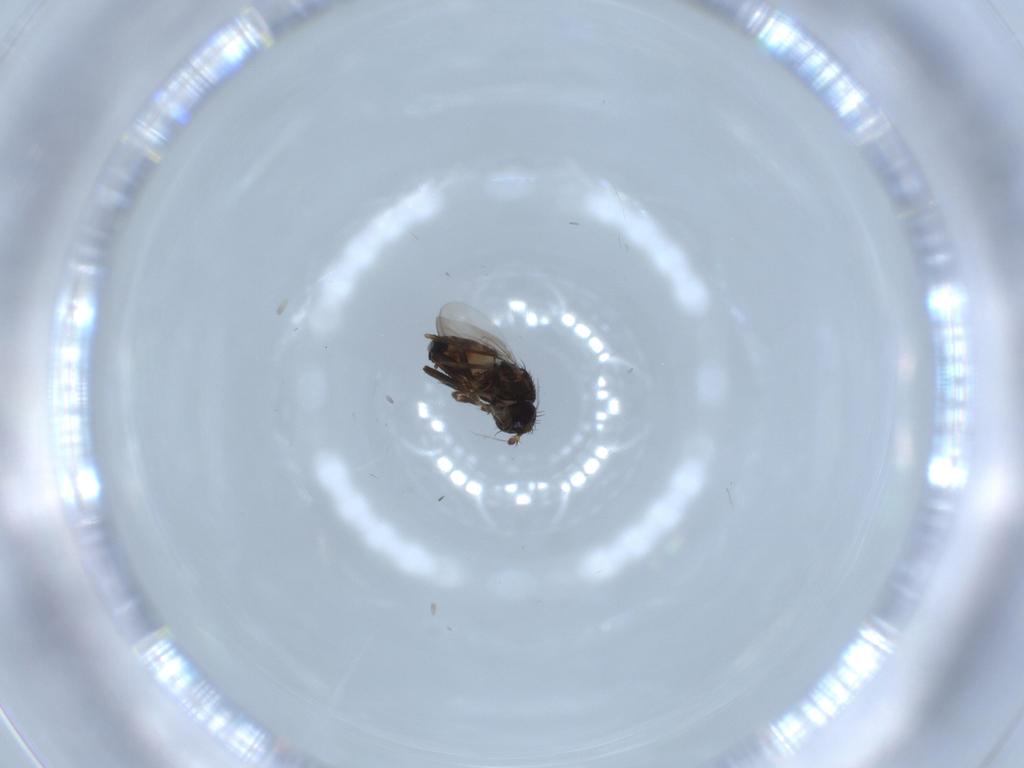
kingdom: Animalia
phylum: Arthropoda
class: Insecta
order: Diptera
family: Sphaeroceridae
